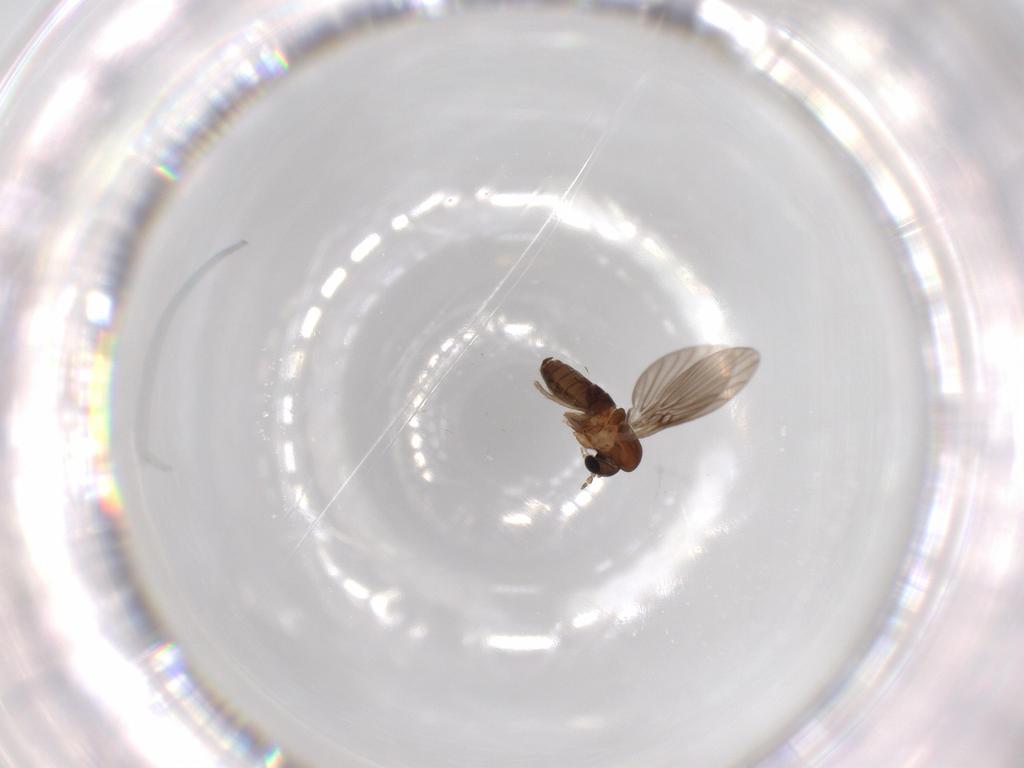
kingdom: Animalia
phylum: Arthropoda
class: Insecta
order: Diptera
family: Psychodidae
